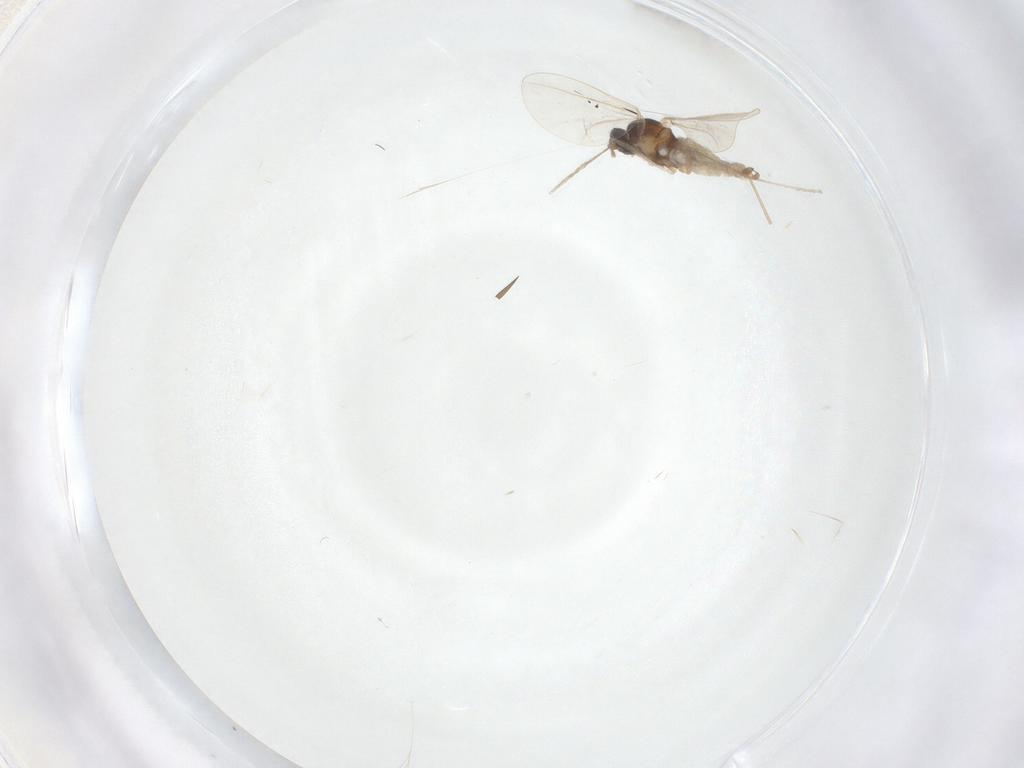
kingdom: Animalia
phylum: Arthropoda
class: Insecta
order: Diptera
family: Cecidomyiidae
